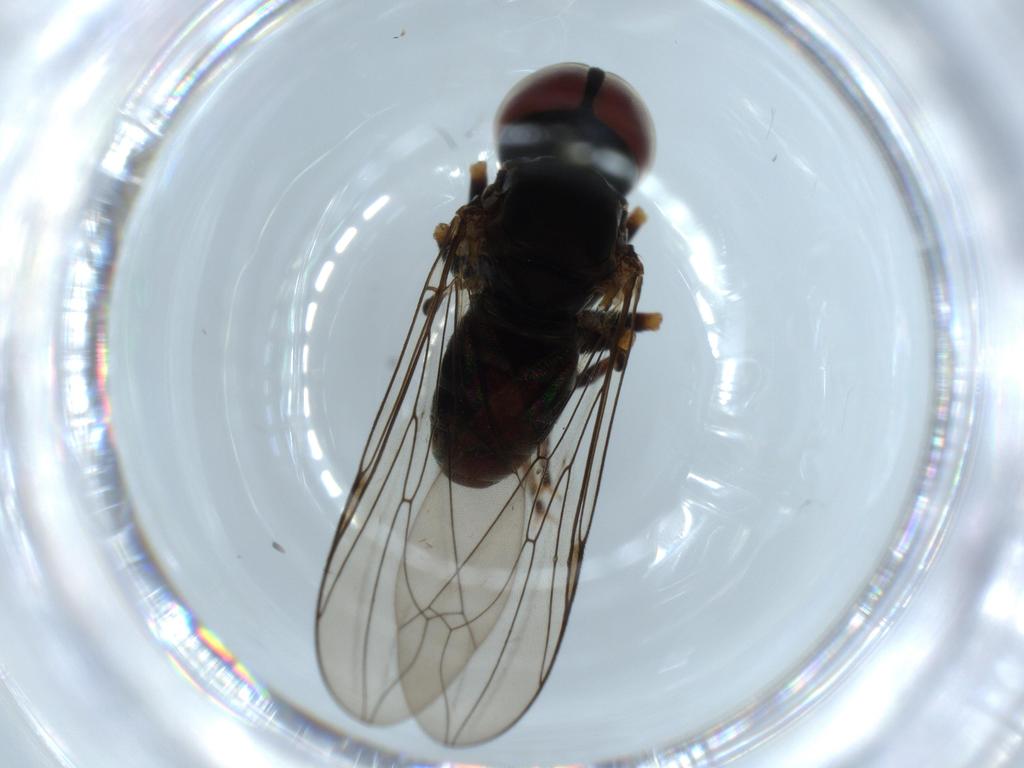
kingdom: Animalia
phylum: Arthropoda
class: Insecta
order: Diptera
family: Pipunculidae
